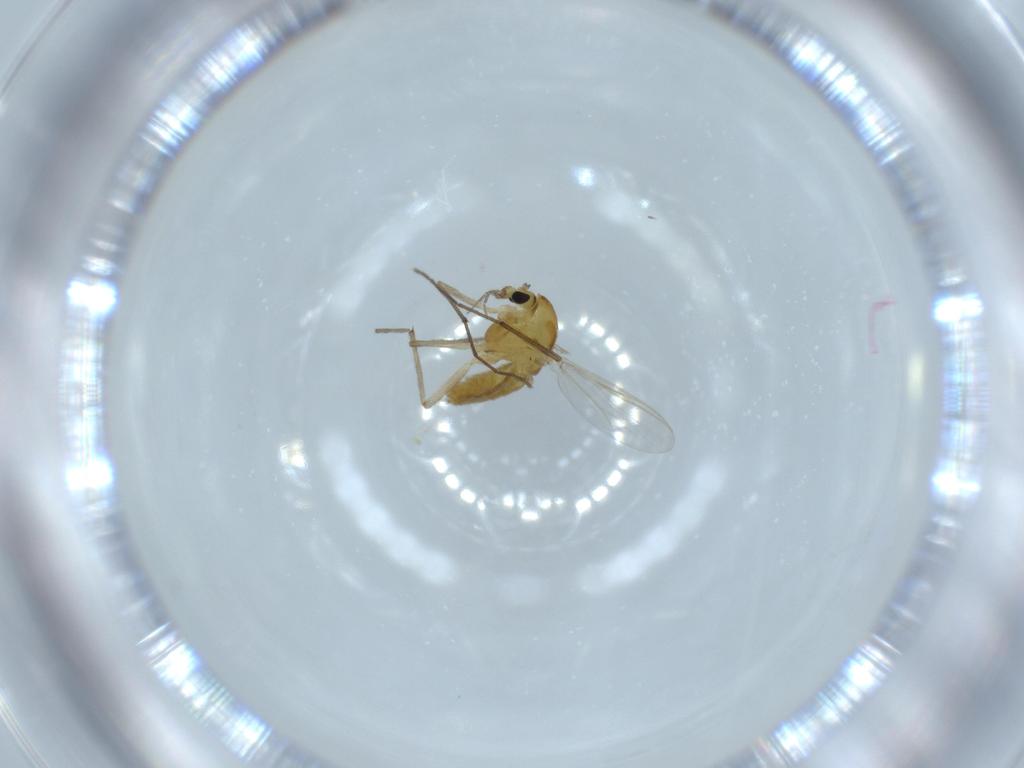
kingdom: Animalia
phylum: Arthropoda
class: Insecta
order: Diptera
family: Chironomidae
